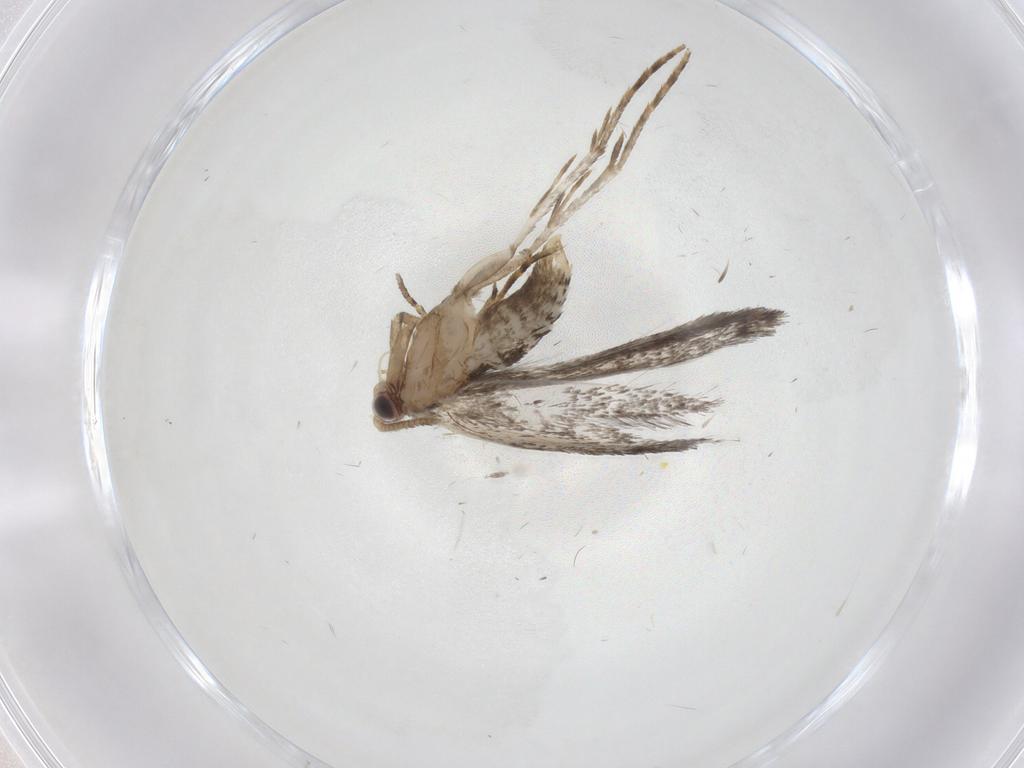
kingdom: Animalia
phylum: Arthropoda
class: Insecta
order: Lepidoptera
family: Tineidae
